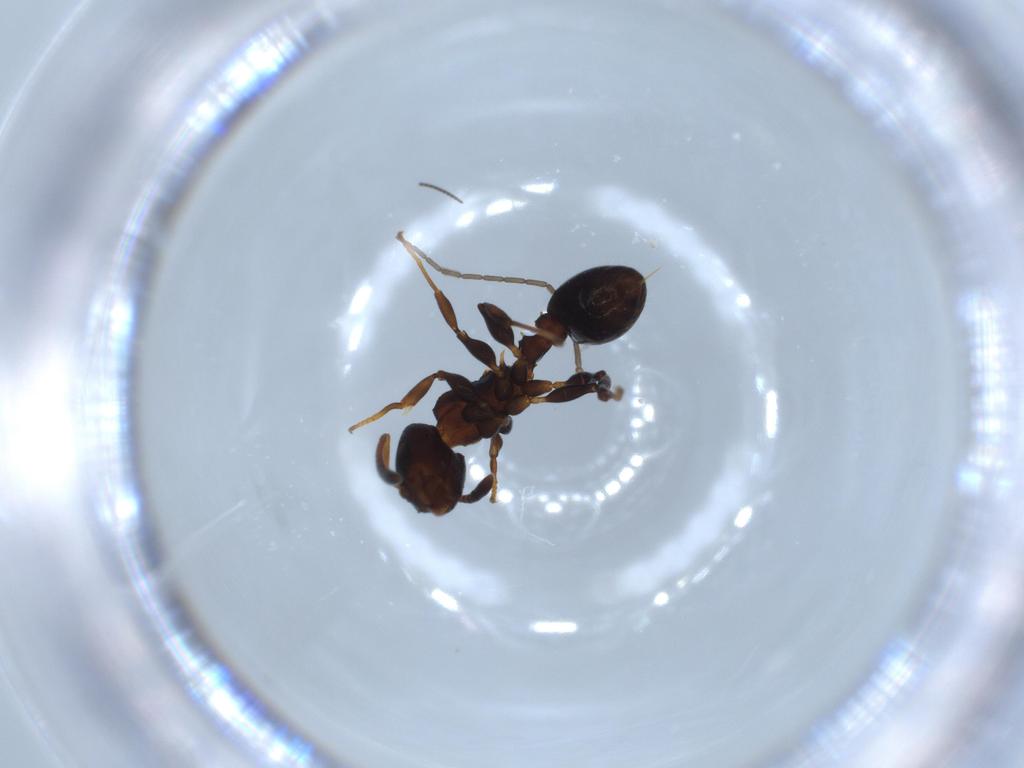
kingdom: Animalia
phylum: Arthropoda
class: Insecta
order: Hymenoptera
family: Formicidae
